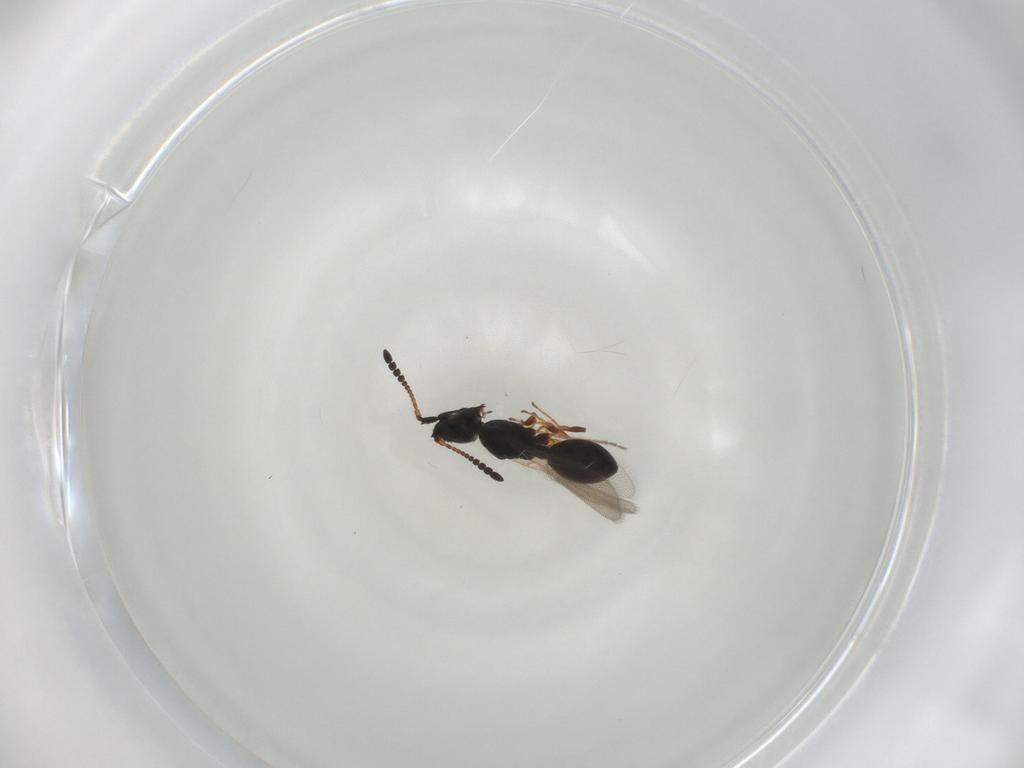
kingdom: Animalia
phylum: Arthropoda
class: Insecta
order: Hymenoptera
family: Diapriidae
